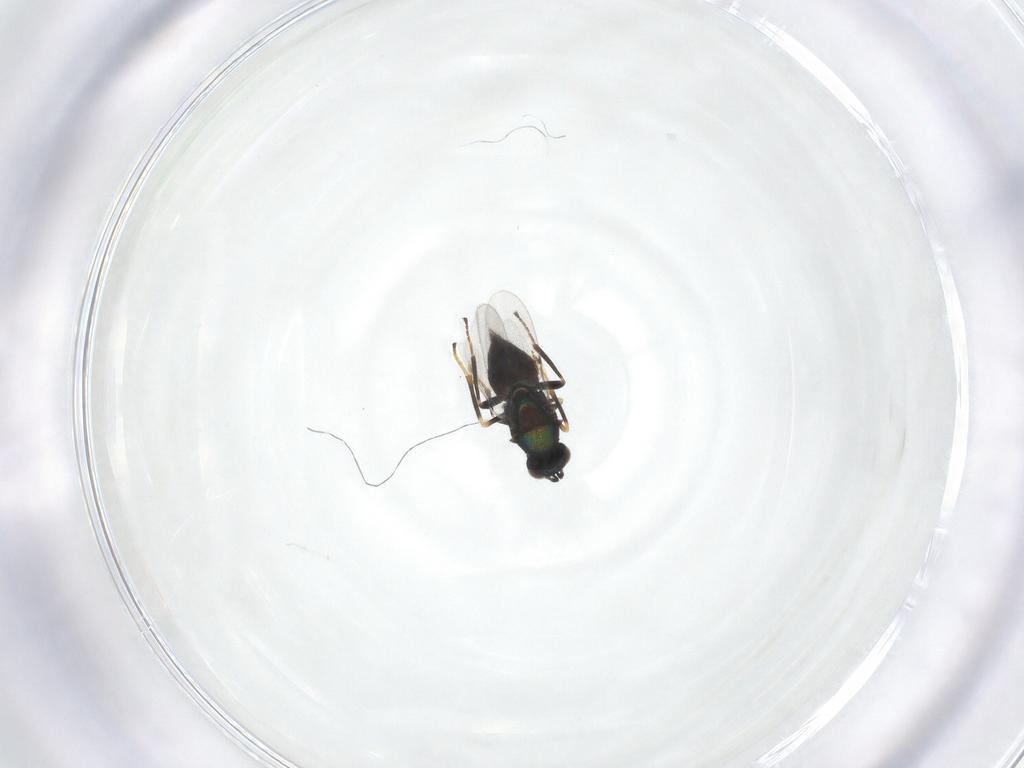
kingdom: Animalia
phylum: Arthropoda
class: Insecta
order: Hymenoptera
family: Encyrtidae
